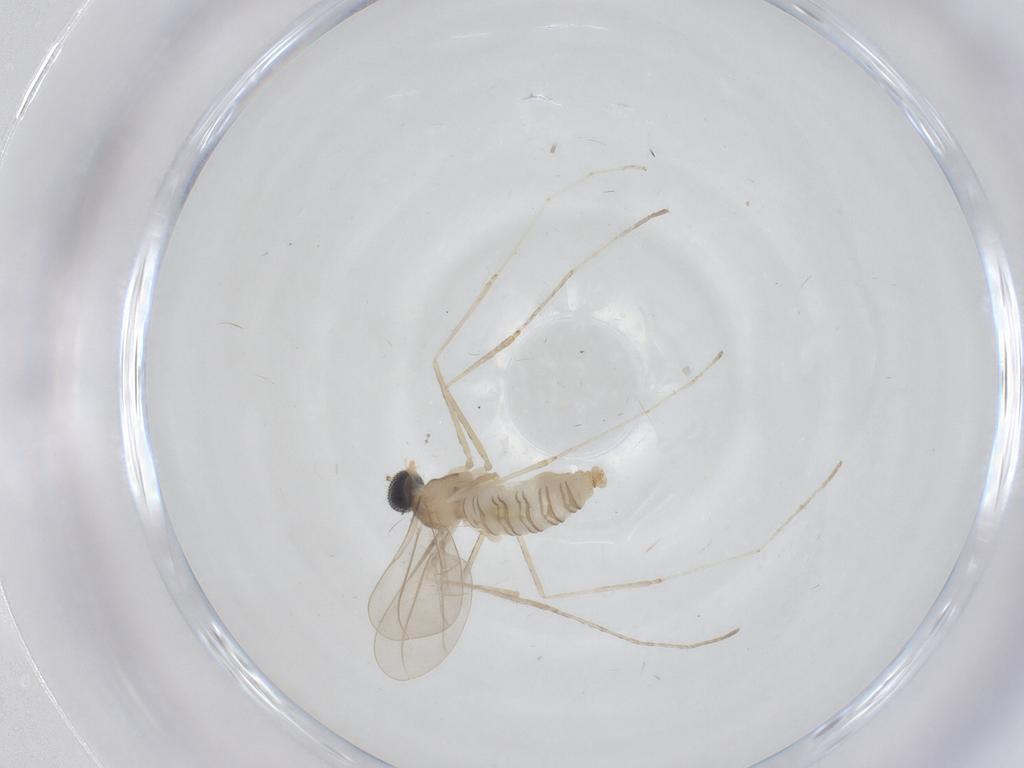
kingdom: Animalia
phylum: Arthropoda
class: Insecta
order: Diptera
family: Cecidomyiidae
